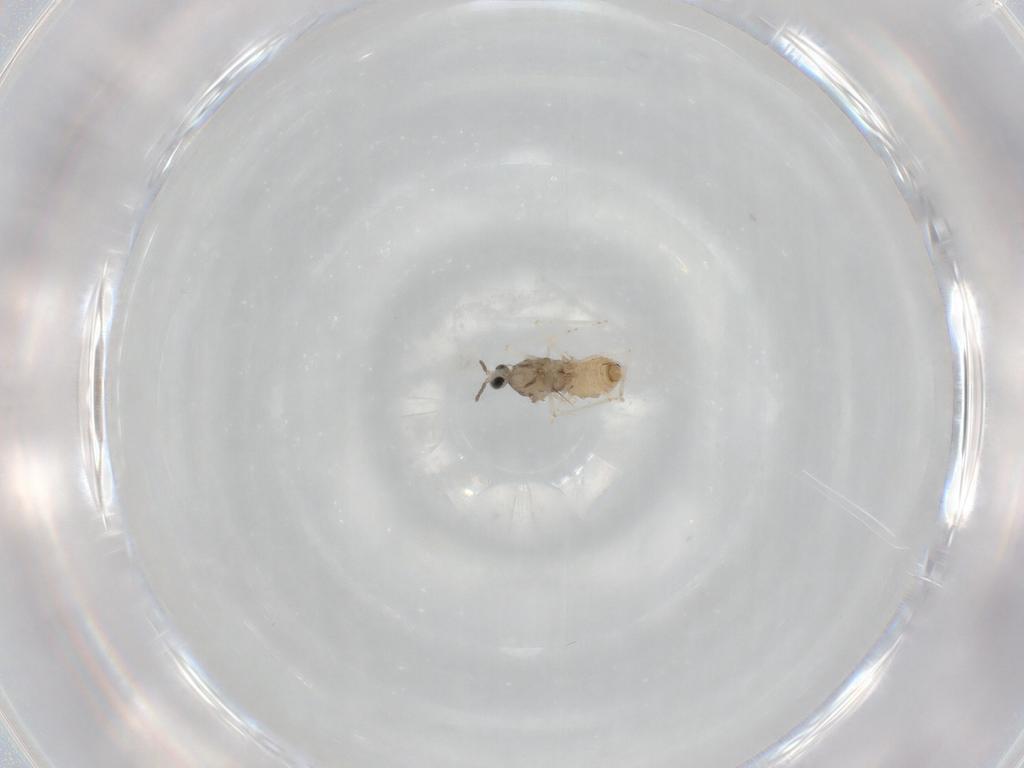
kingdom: Animalia
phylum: Arthropoda
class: Insecta
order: Diptera
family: Cecidomyiidae
